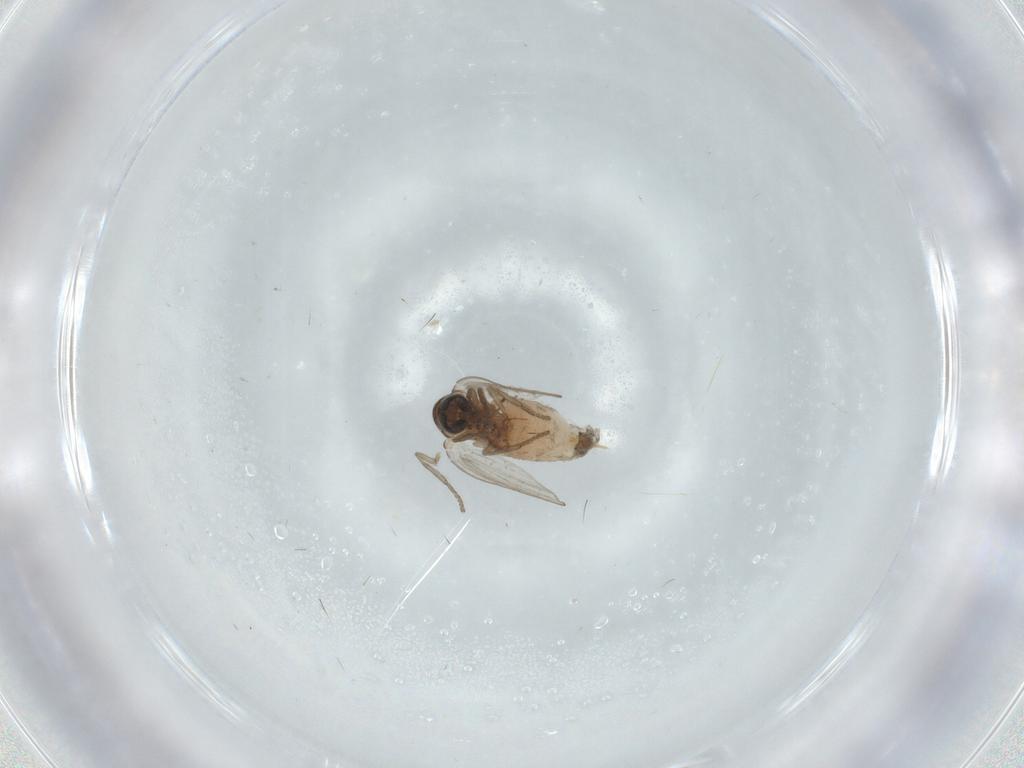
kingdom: Animalia
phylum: Arthropoda
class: Insecta
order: Diptera
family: Psychodidae
